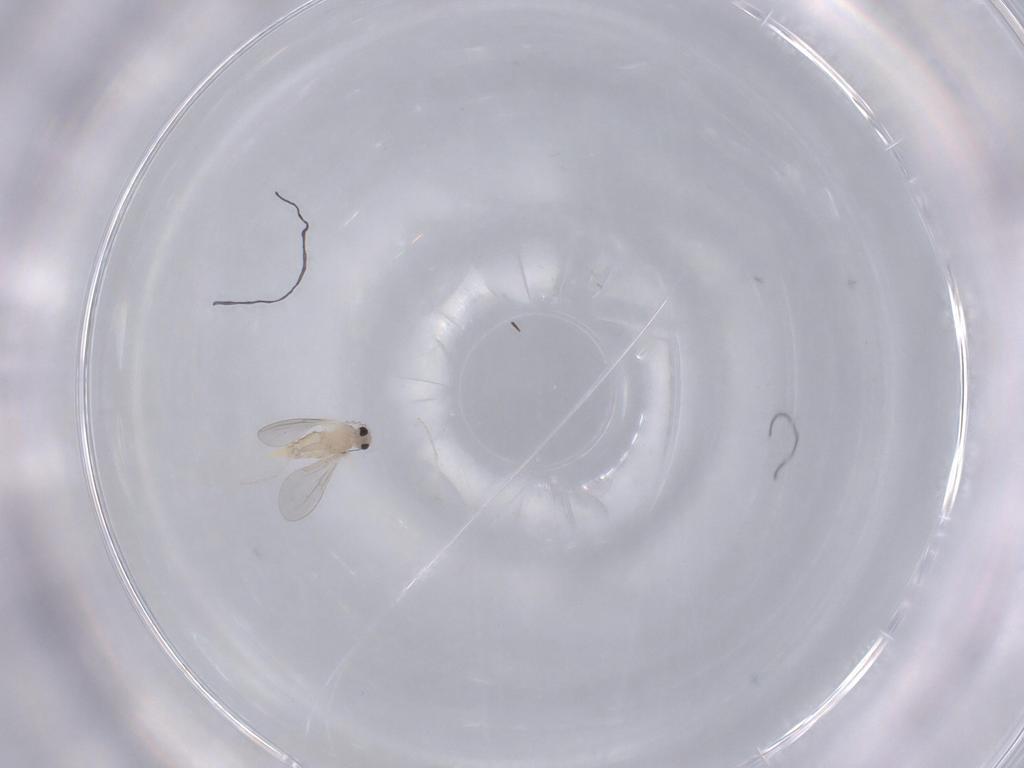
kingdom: Animalia
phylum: Arthropoda
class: Insecta
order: Diptera
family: Cecidomyiidae
